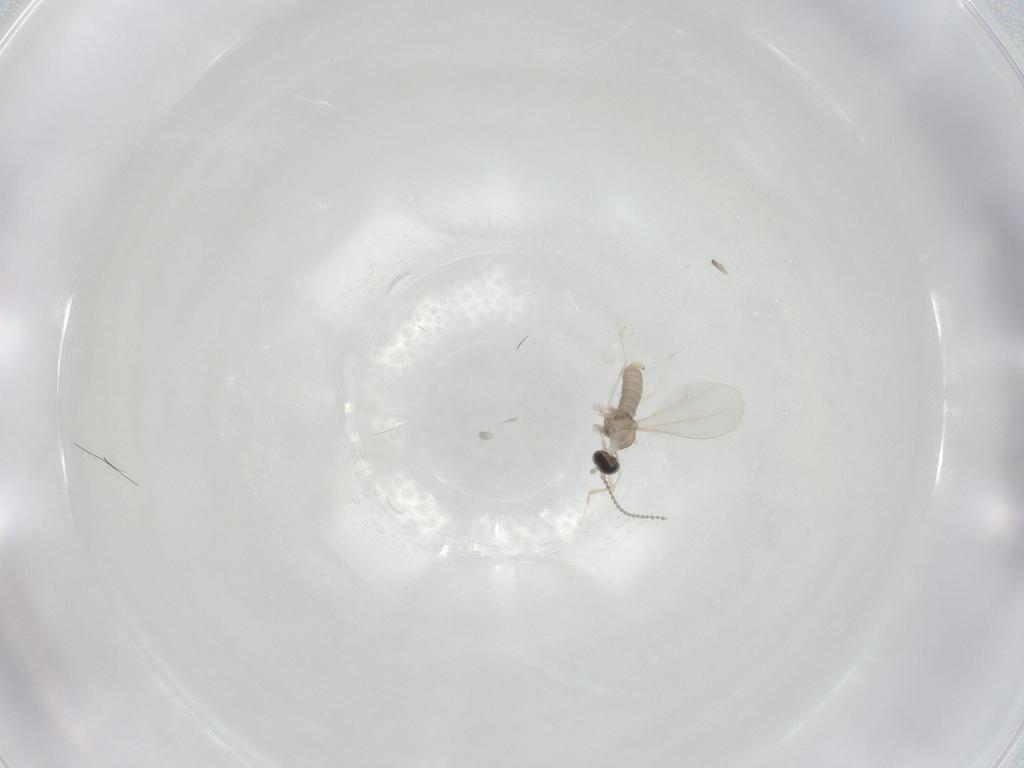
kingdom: Animalia
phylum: Arthropoda
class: Insecta
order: Diptera
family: Cecidomyiidae
